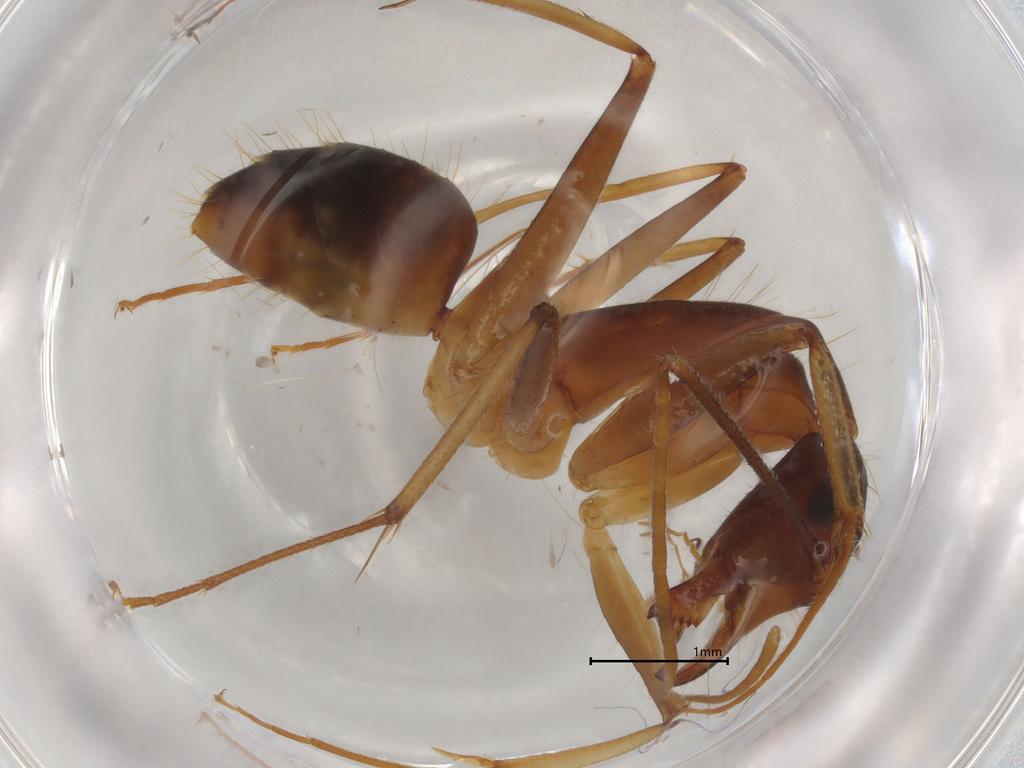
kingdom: Animalia
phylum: Arthropoda
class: Insecta
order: Hymenoptera
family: Formicidae
